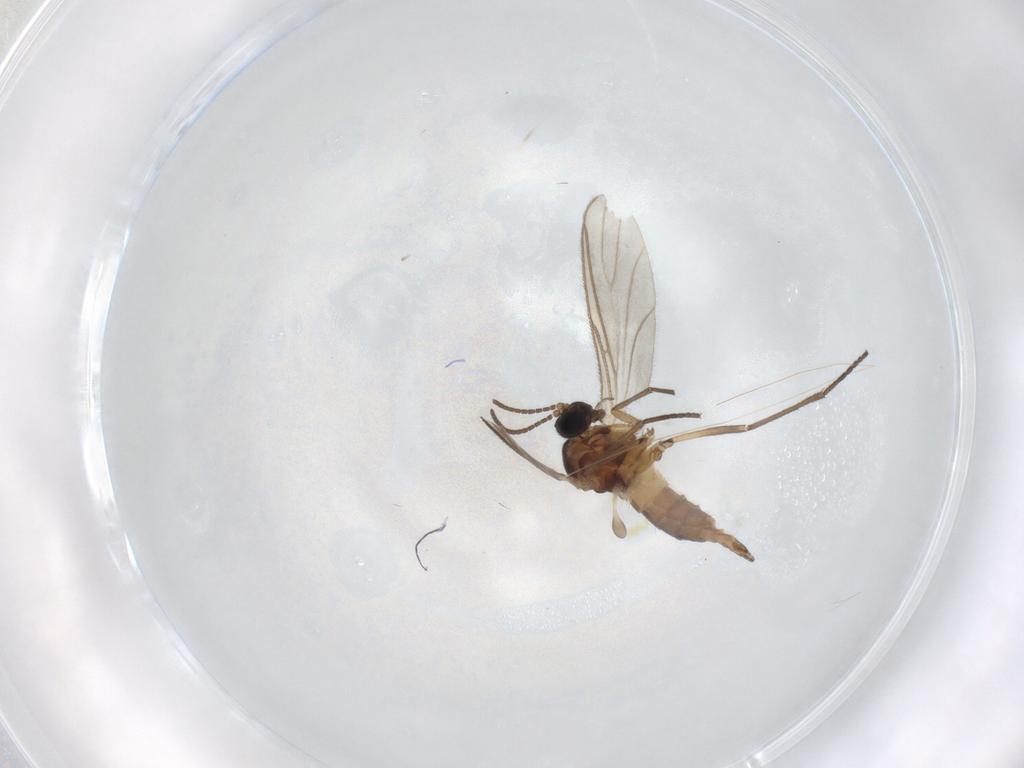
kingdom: Animalia
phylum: Arthropoda
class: Insecta
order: Diptera
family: Sciaridae
